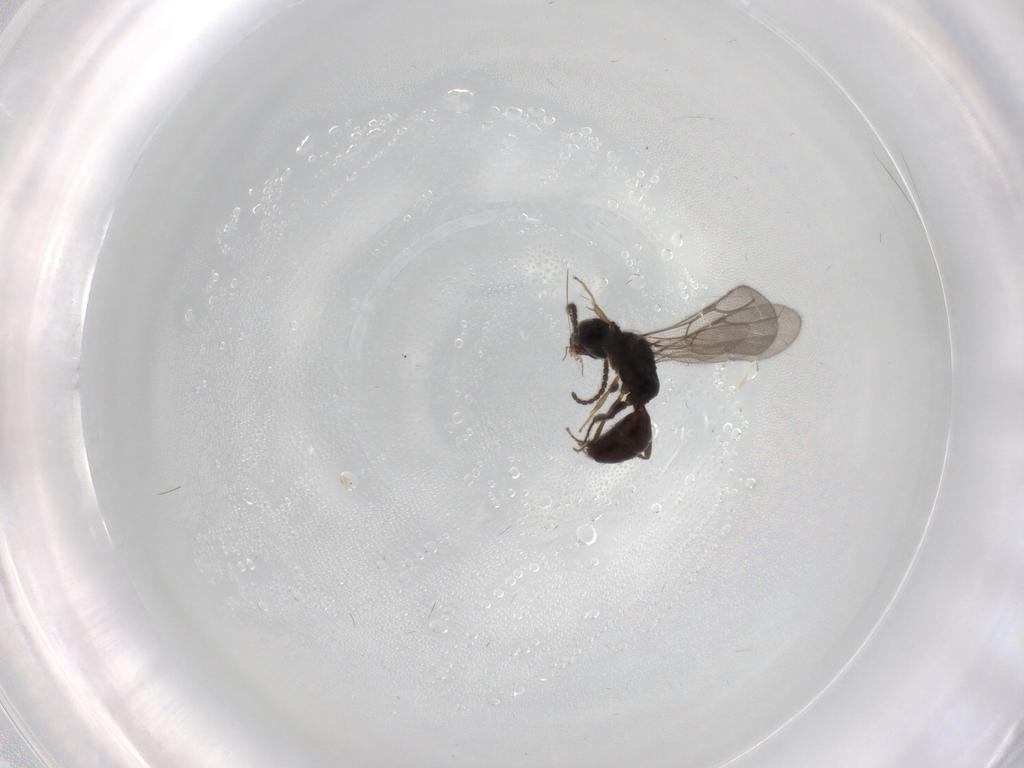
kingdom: Animalia
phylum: Arthropoda
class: Insecta
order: Hymenoptera
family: Bethylidae
